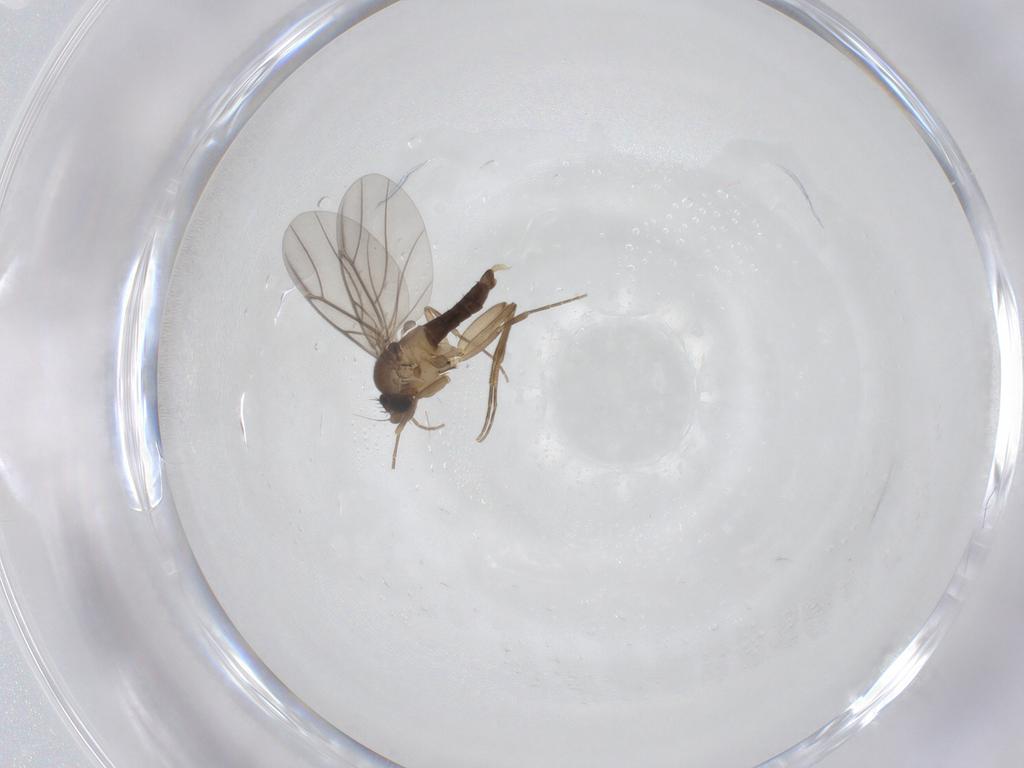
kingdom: Animalia
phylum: Arthropoda
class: Insecta
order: Diptera
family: Phoridae
